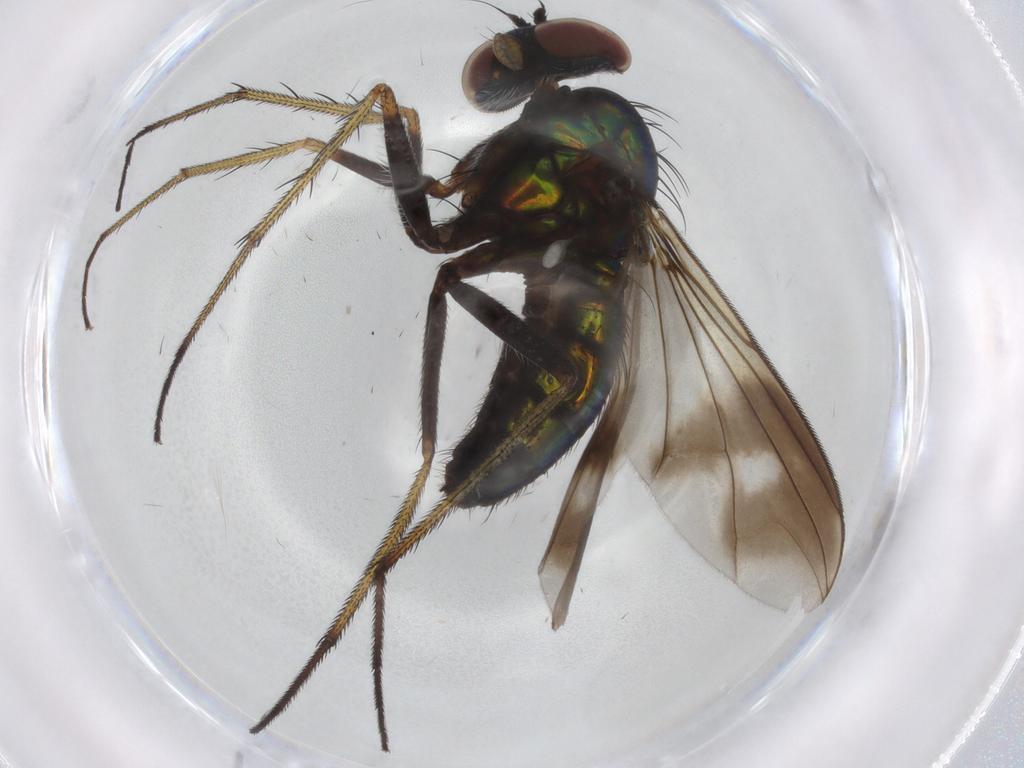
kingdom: Animalia
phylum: Arthropoda
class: Insecta
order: Diptera
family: Dolichopodidae
